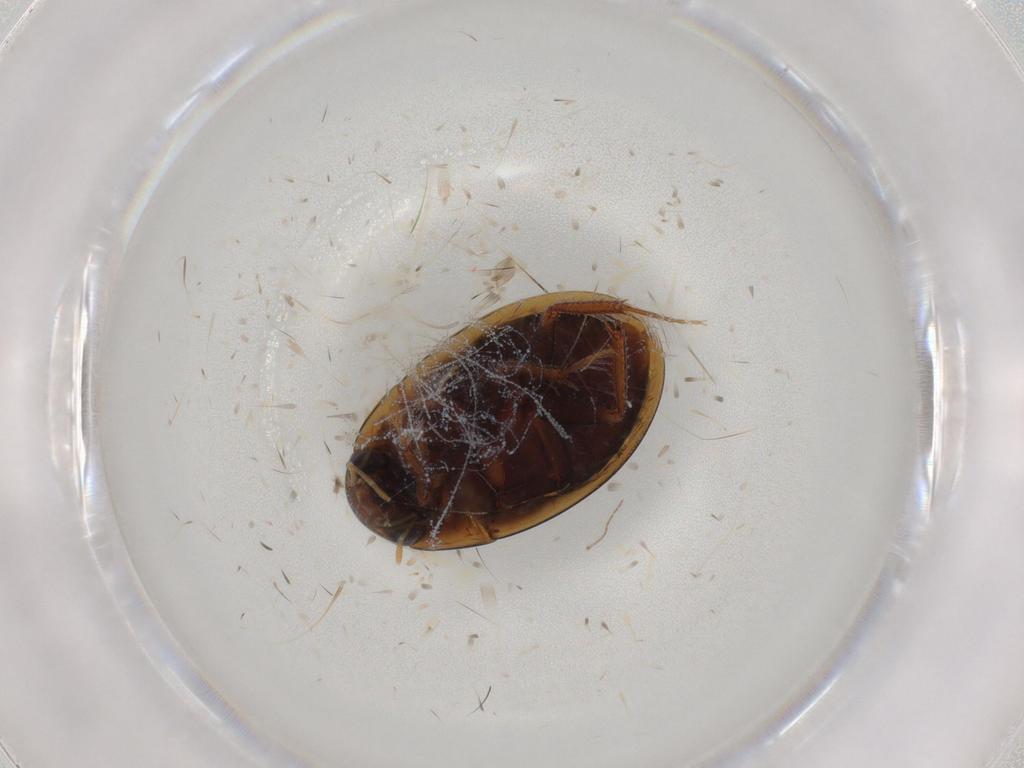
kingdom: Animalia
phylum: Arthropoda
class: Insecta
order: Coleoptera
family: Hydrophilidae
